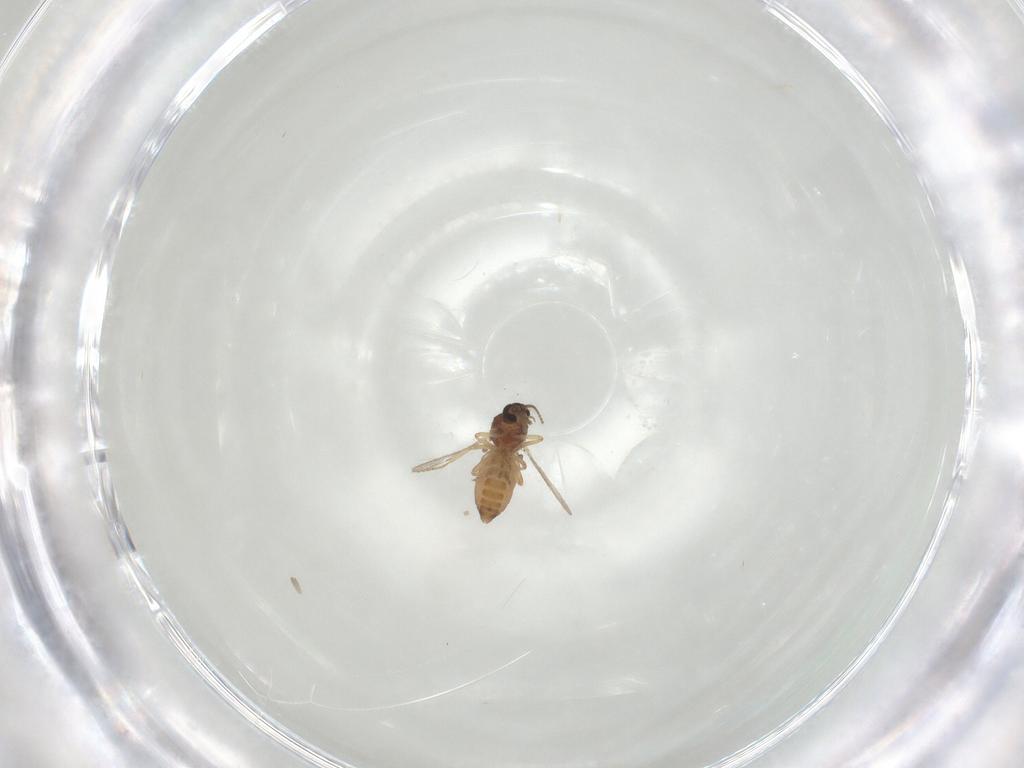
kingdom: Animalia
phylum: Arthropoda
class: Insecta
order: Diptera
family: Ceratopogonidae
